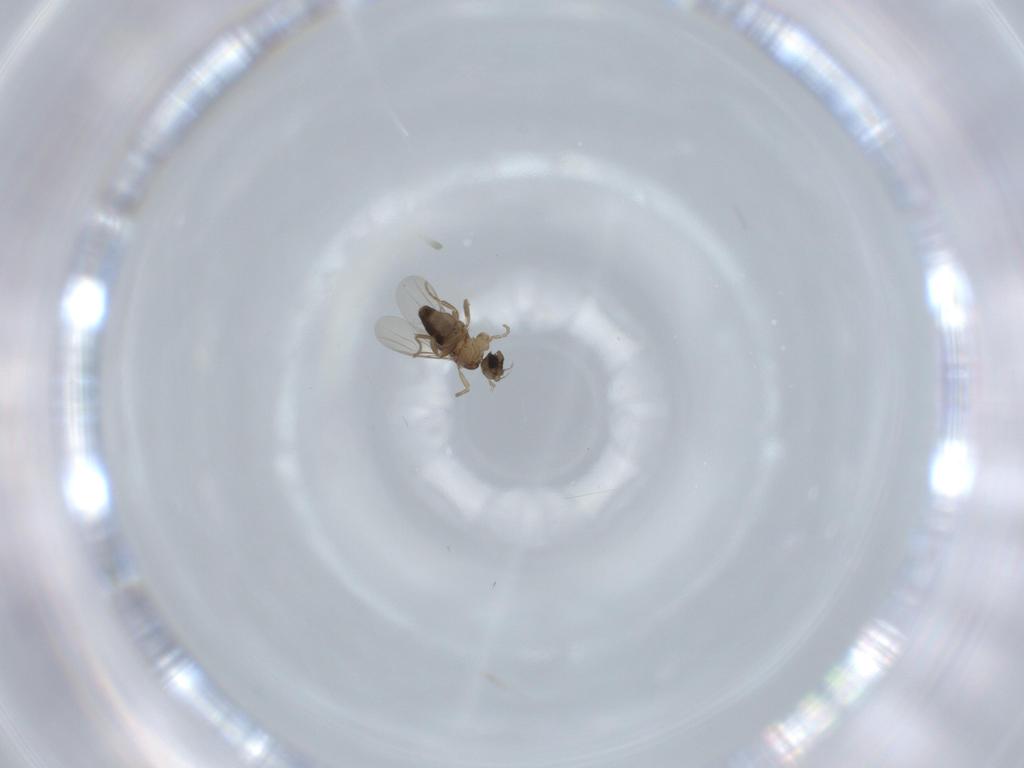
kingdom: Animalia
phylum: Arthropoda
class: Insecta
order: Diptera
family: Phoridae
